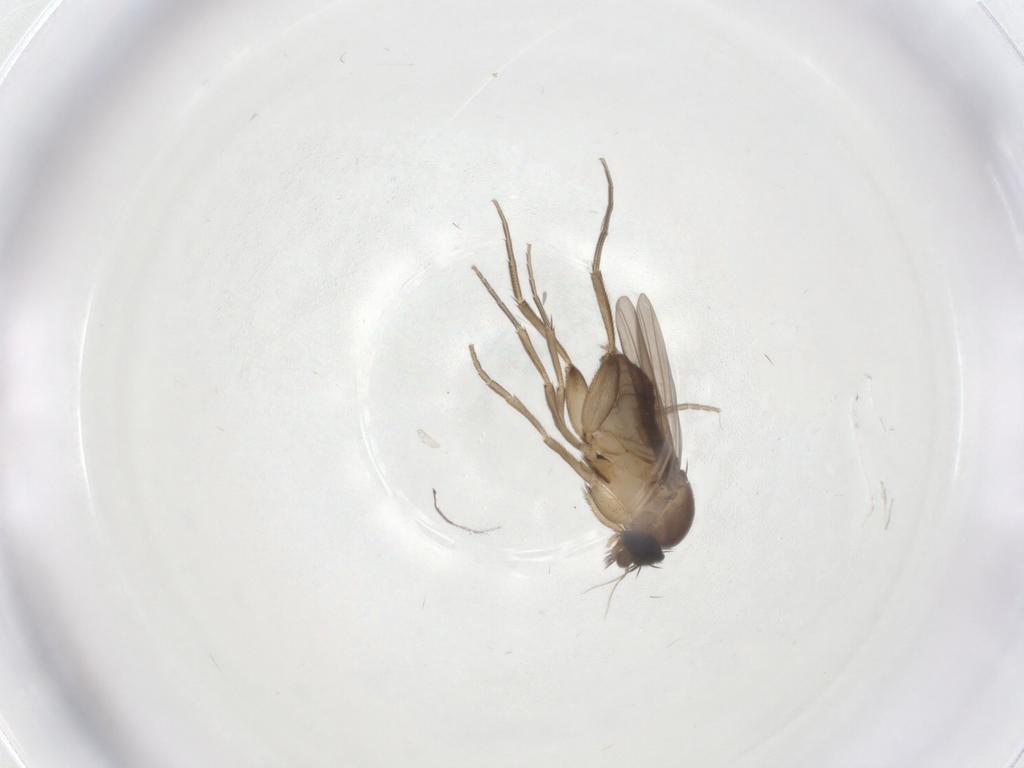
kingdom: Animalia
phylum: Arthropoda
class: Insecta
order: Diptera
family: Phoridae
